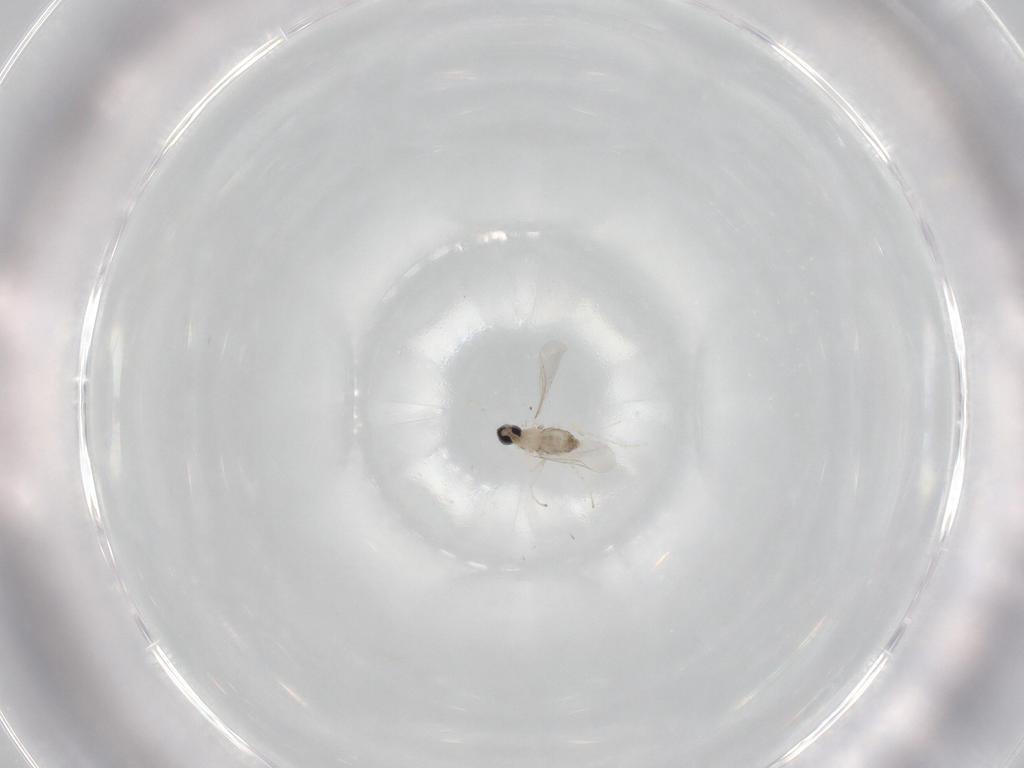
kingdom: Animalia
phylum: Arthropoda
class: Insecta
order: Diptera
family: Cecidomyiidae
